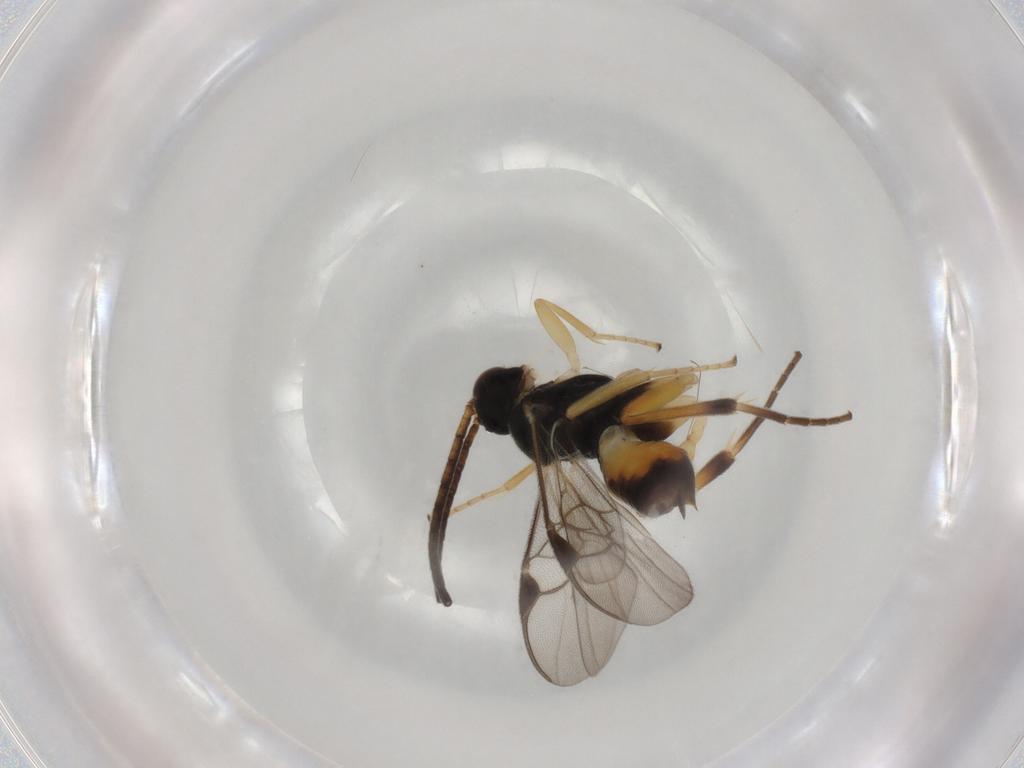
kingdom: Animalia
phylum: Arthropoda
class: Insecta
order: Hymenoptera
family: Braconidae
